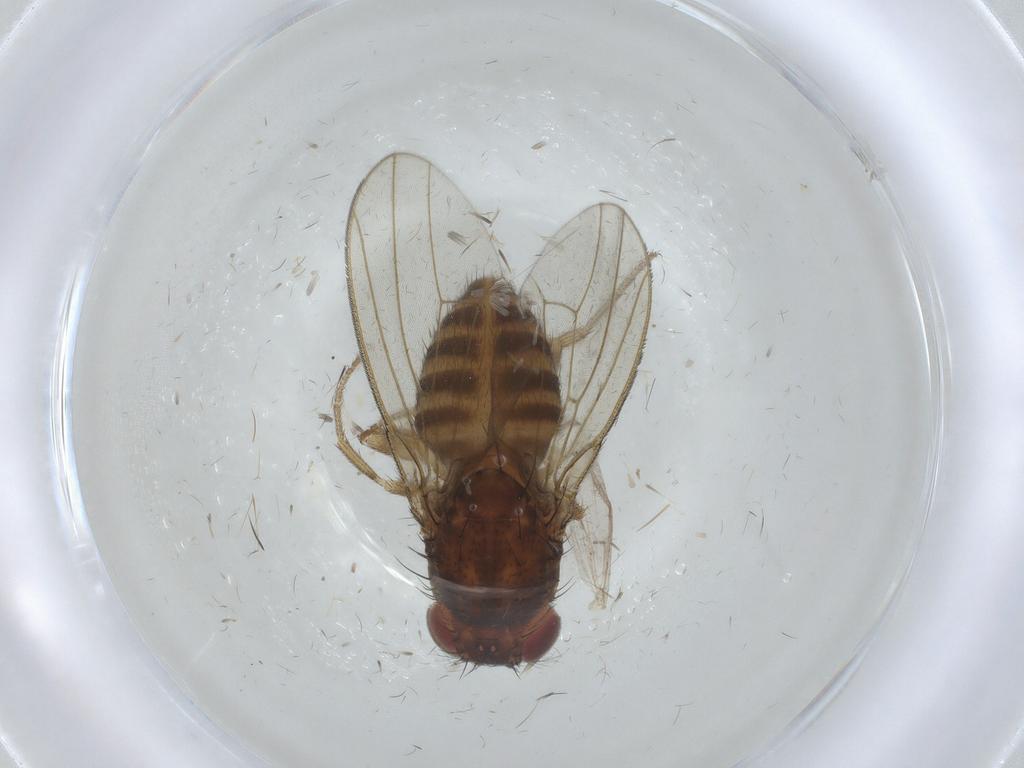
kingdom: Animalia
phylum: Arthropoda
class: Insecta
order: Diptera
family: Drosophilidae
